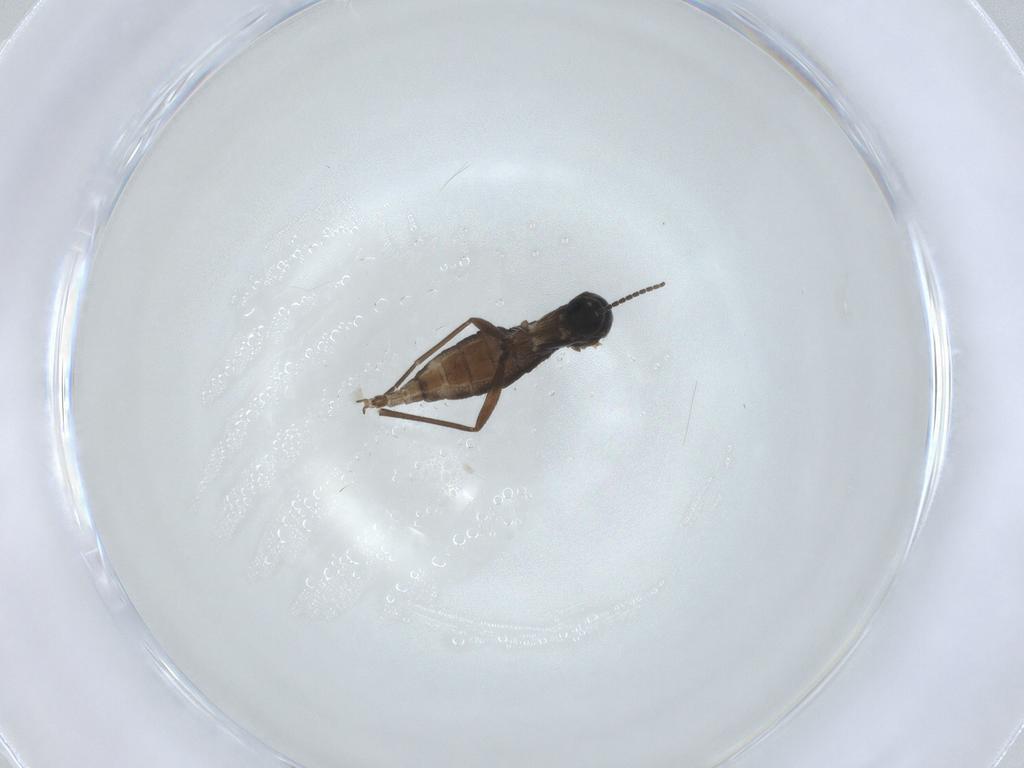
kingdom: Animalia
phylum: Arthropoda
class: Insecta
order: Diptera
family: Sciaridae
